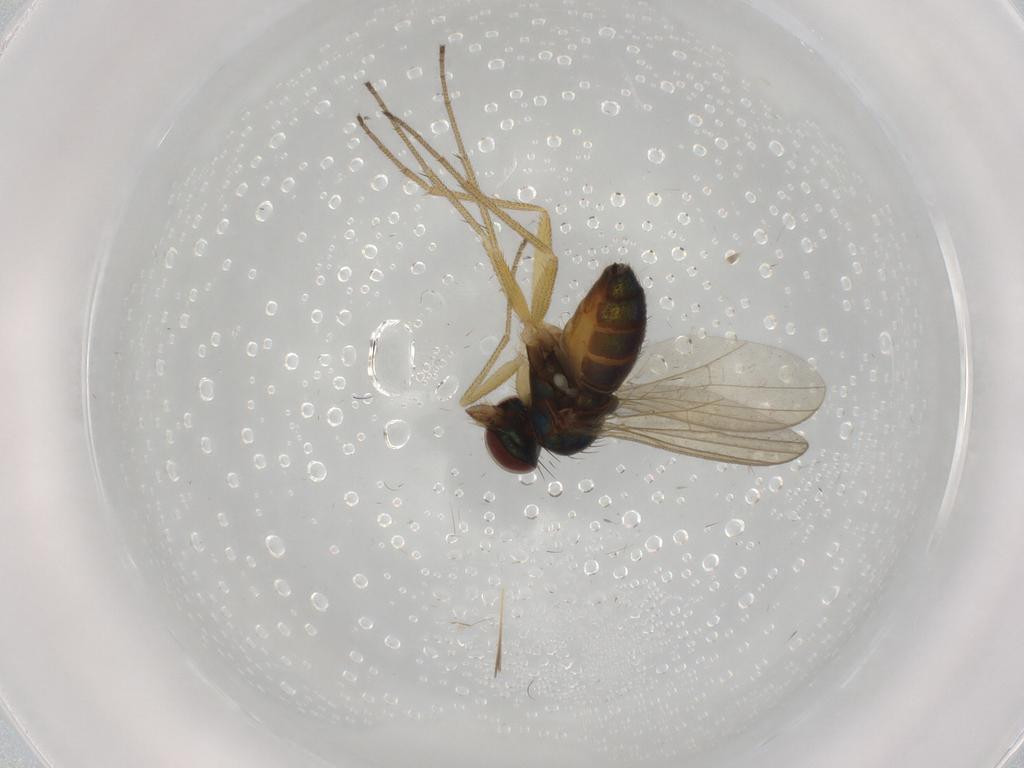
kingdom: Animalia
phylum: Arthropoda
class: Insecta
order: Diptera
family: Dolichopodidae
